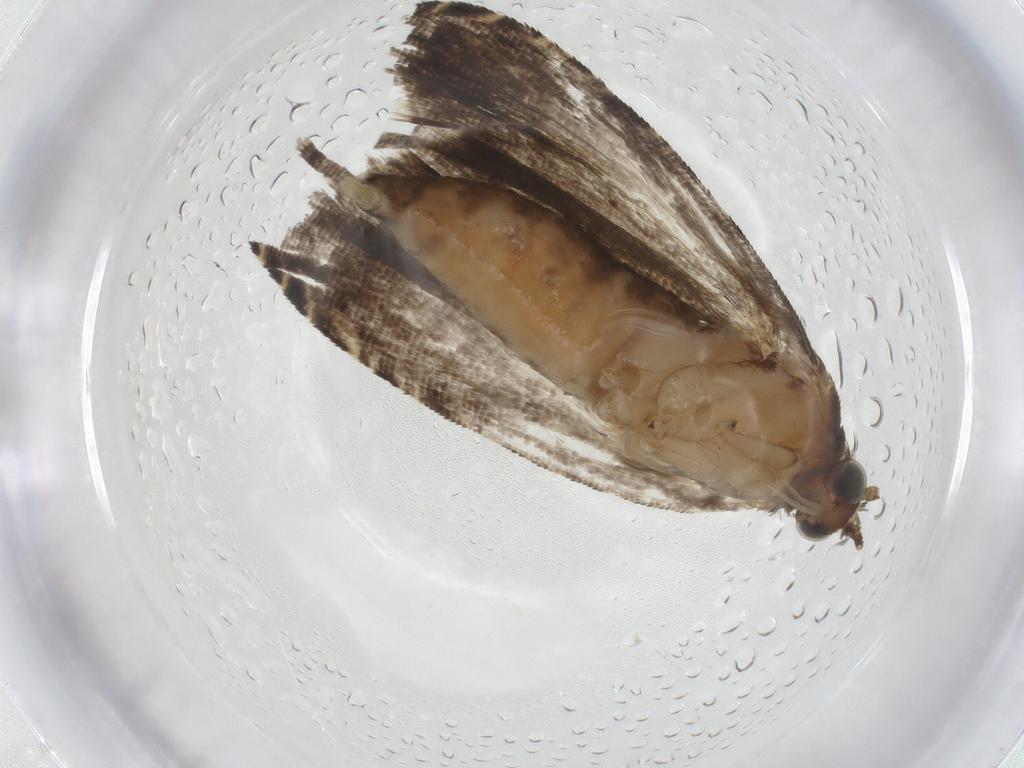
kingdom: Animalia
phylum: Arthropoda
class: Insecta
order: Lepidoptera
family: Tortricidae
